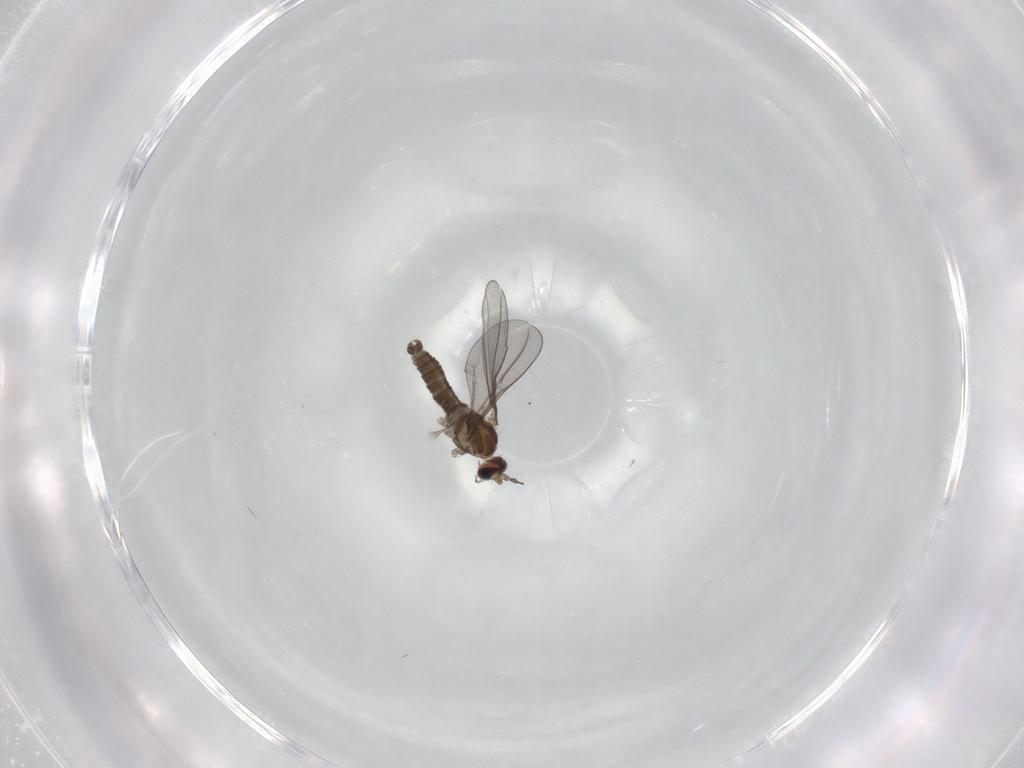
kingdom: Animalia
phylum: Arthropoda
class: Insecta
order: Diptera
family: Cecidomyiidae
